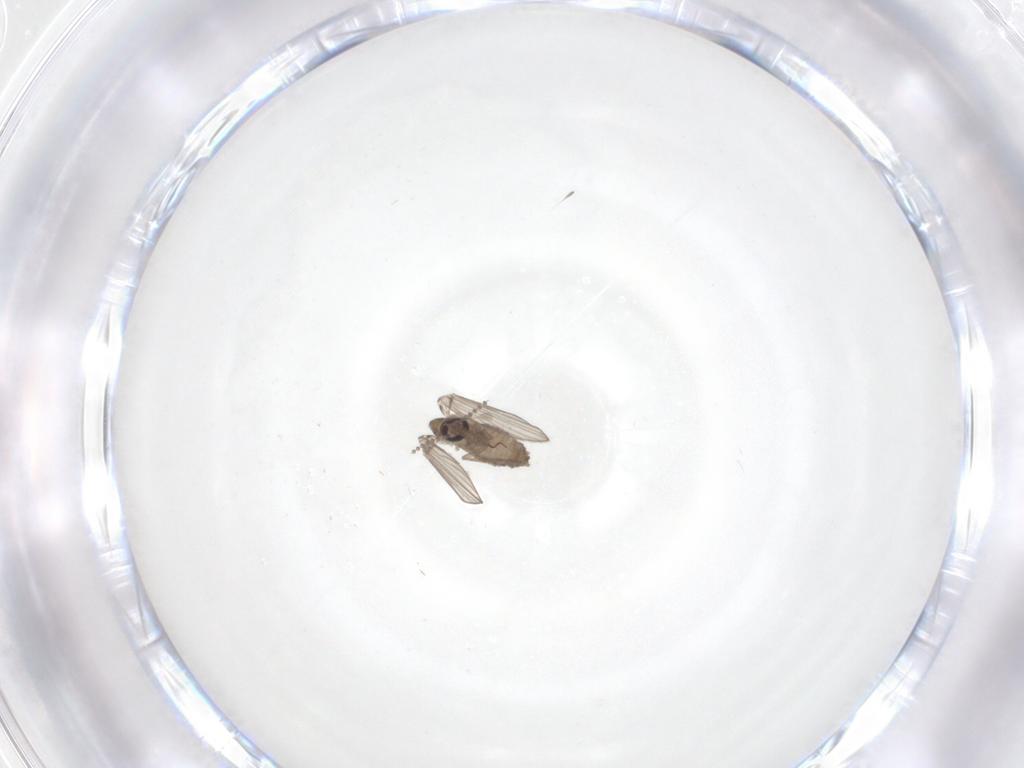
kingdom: Animalia
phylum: Arthropoda
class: Insecta
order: Diptera
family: Psychodidae
